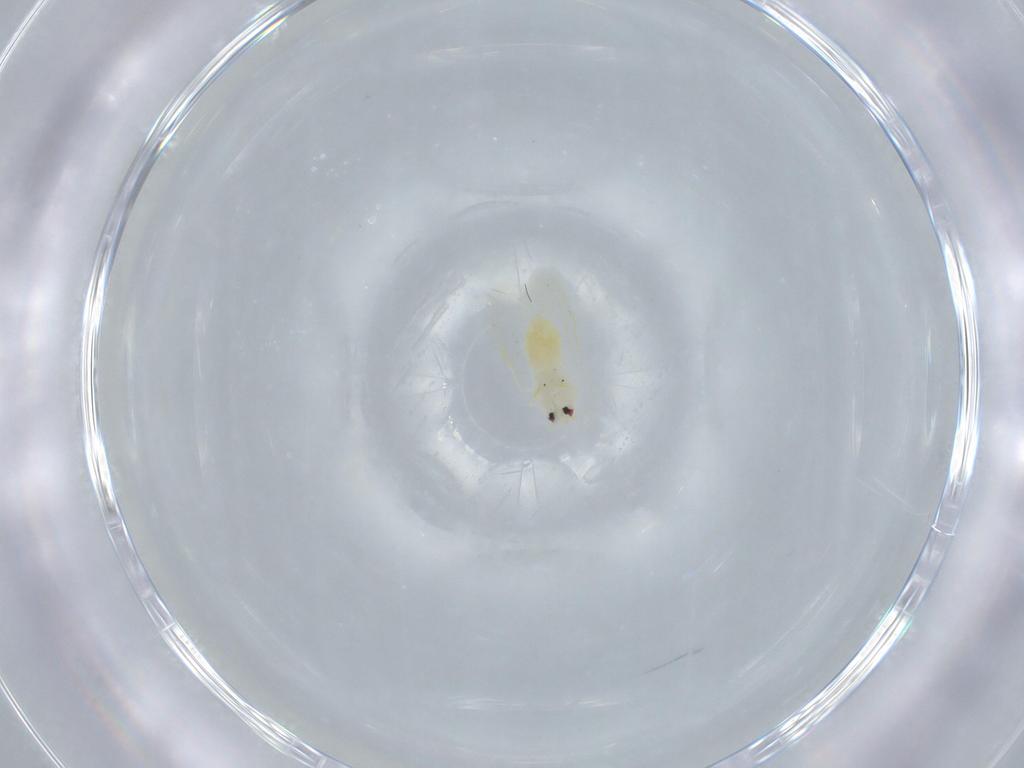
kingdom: Animalia
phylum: Arthropoda
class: Insecta
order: Hemiptera
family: Aleyrodidae
